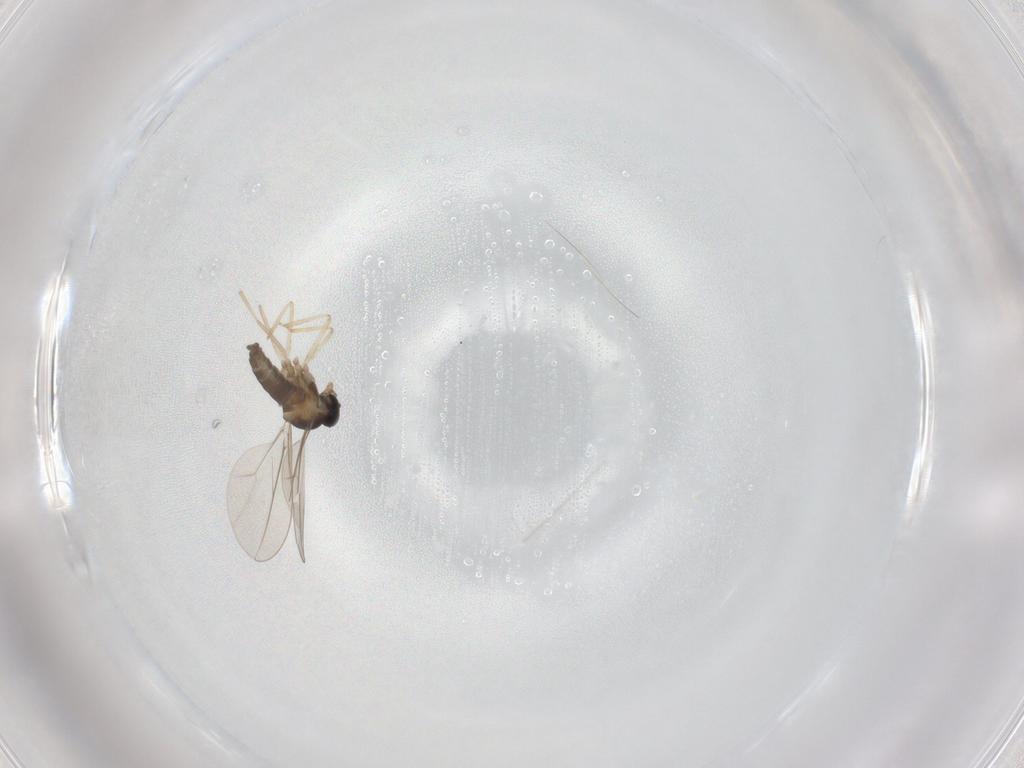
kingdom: Animalia
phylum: Arthropoda
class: Insecta
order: Diptera
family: Cecidomyiidae
